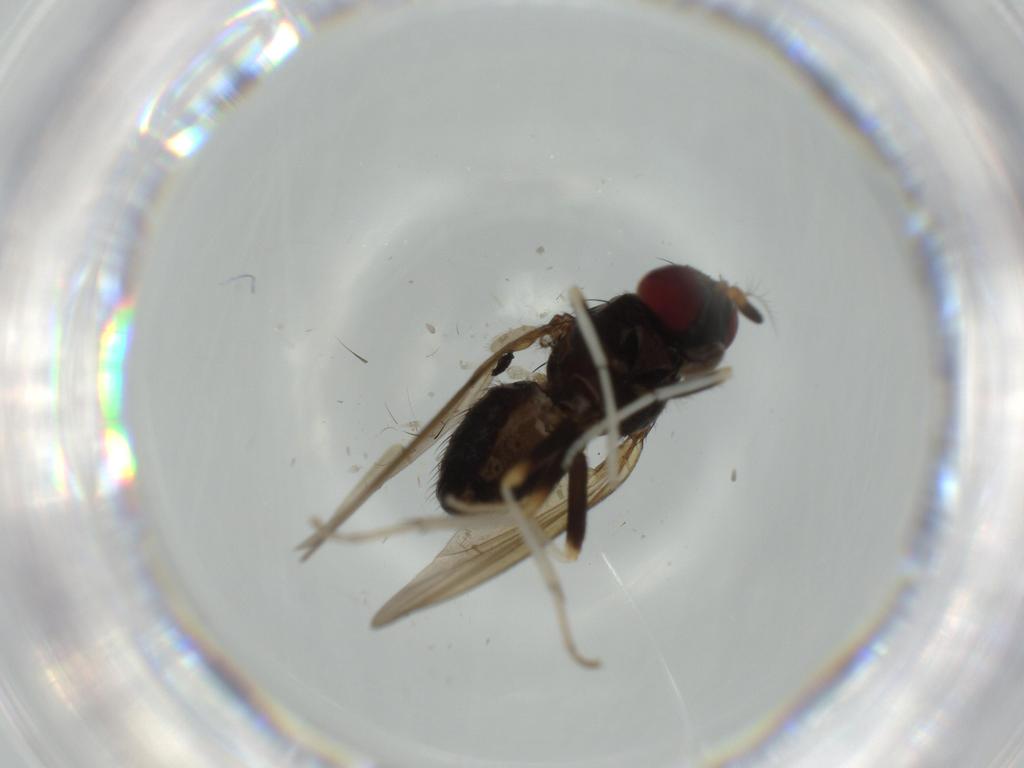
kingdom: Animalia
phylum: Arthropoda
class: Insecta
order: Diptera
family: Lauxaniidae
